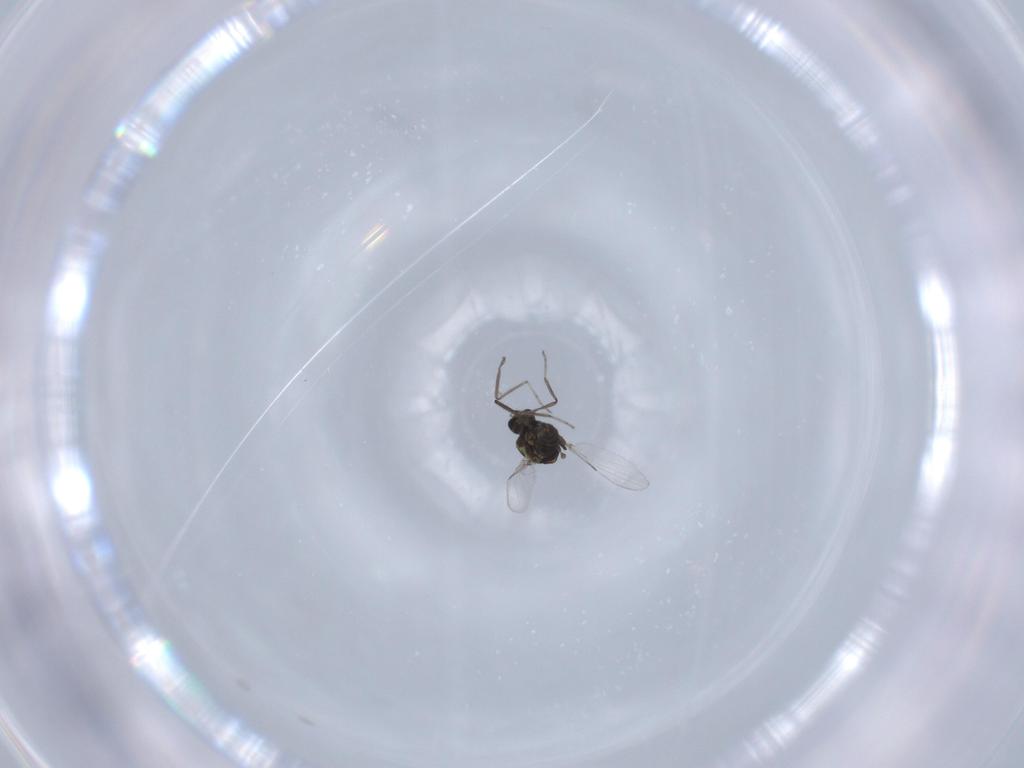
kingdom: Animalia
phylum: Arthropoda
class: Insecta
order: Diptera
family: Ceratopogonidae
